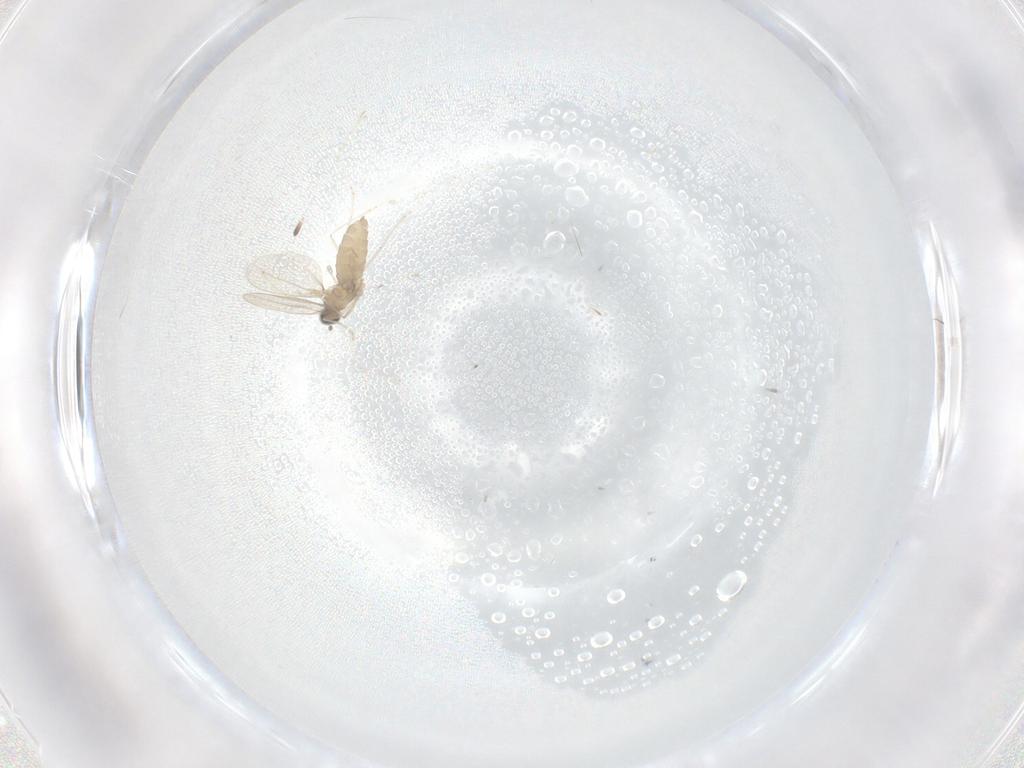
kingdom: Animalia
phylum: Arthropoda
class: Insecta
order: Diptera
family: Cecidomyiidae
